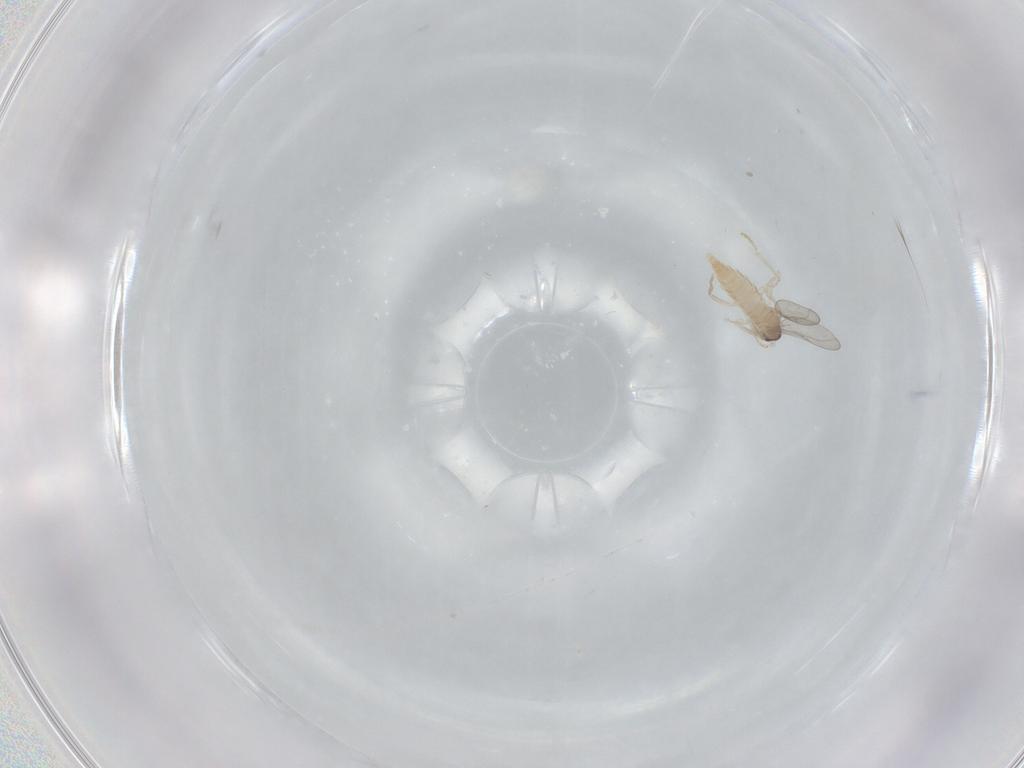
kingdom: Animalia
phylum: Arthropoda
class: Insecta
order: Diptera
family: Cecidomyiidae
